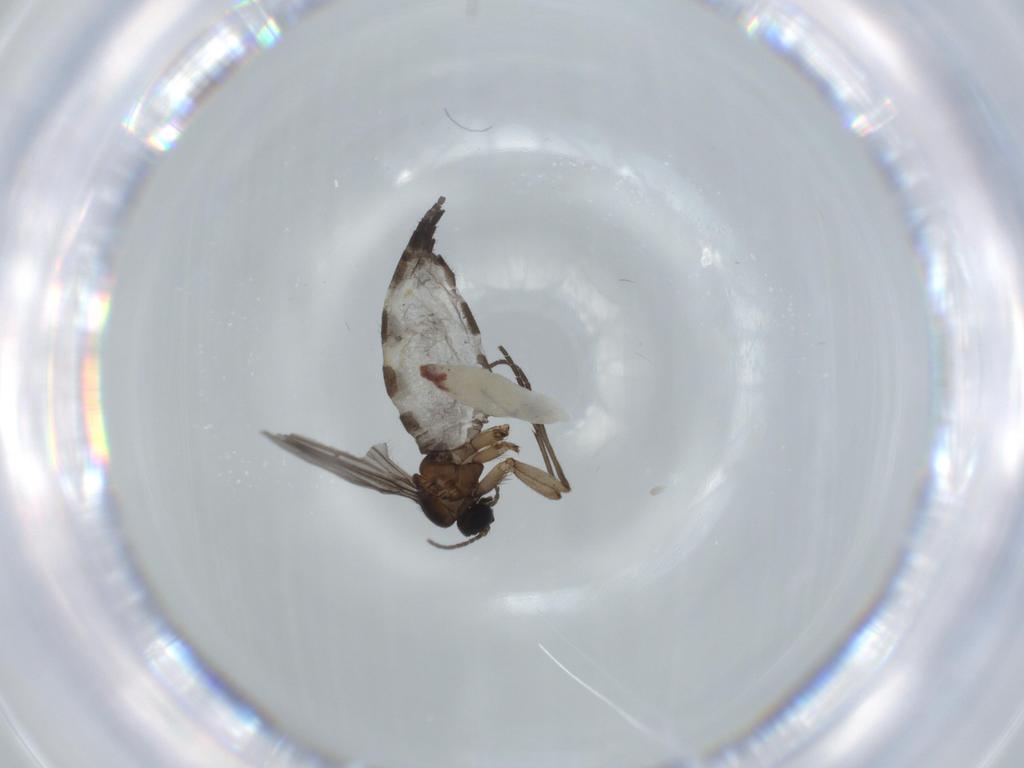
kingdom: Animalia
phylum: Arthropoda
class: Insecta
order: Diptera
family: Sciaridae
